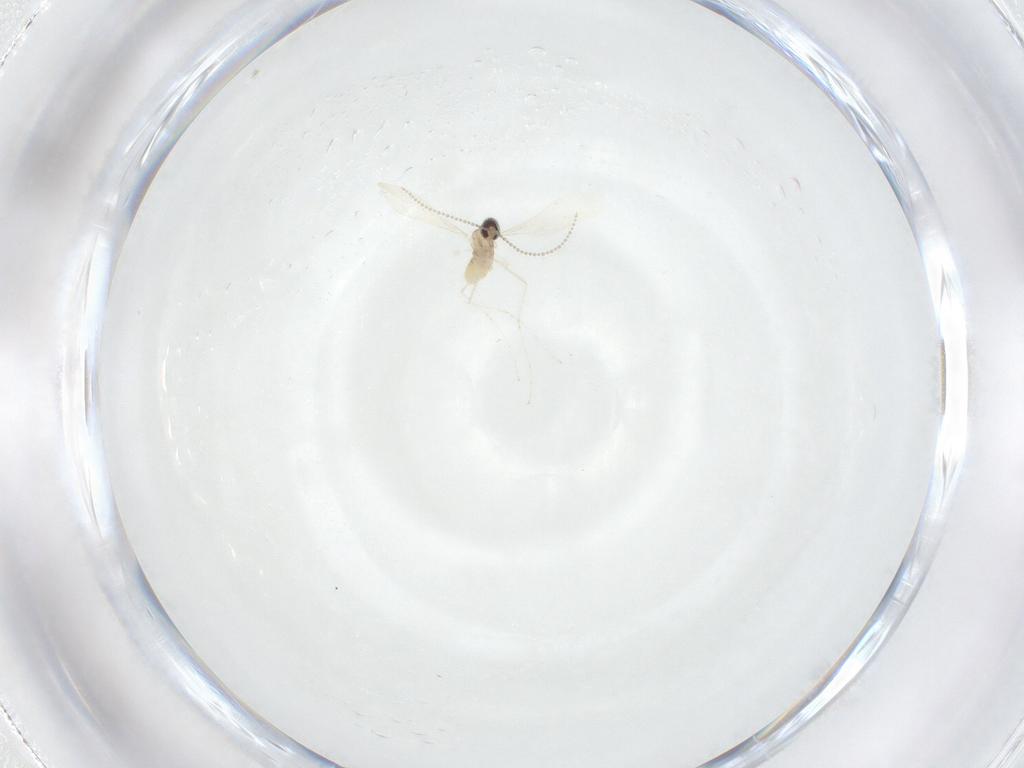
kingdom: Animalia
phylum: Arthropoda
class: Insecta
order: Diptera
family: Cecidomyiidae
